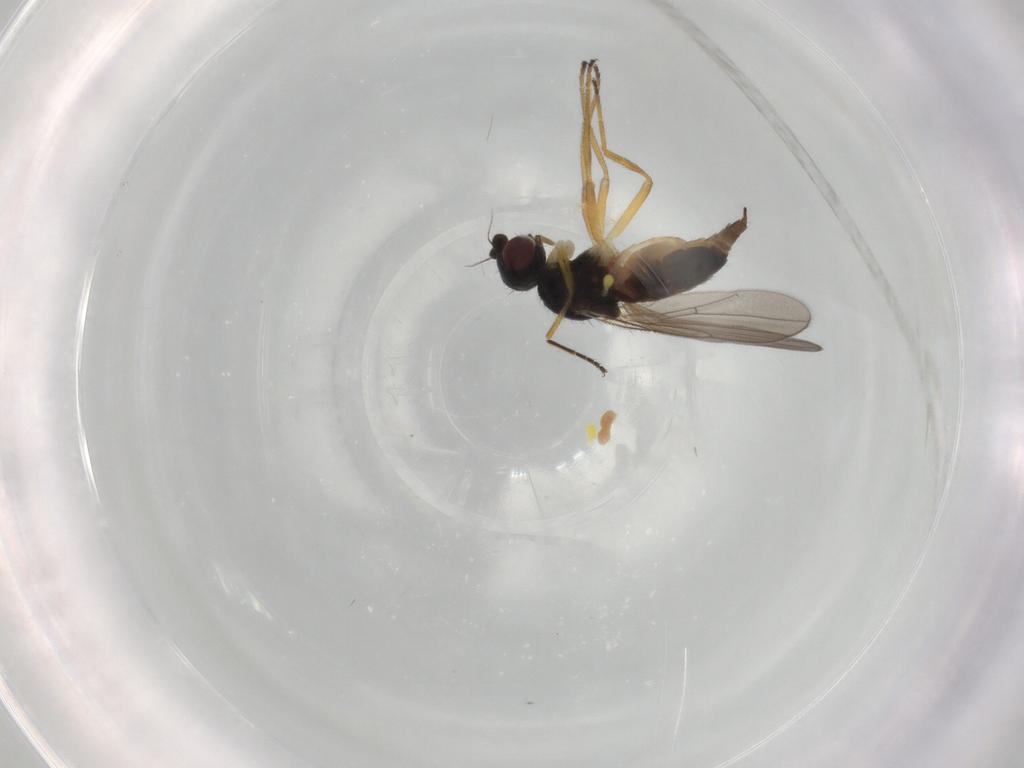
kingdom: Animalia
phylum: Arthropoda
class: Insecta
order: Diptera
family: Chloropidae
